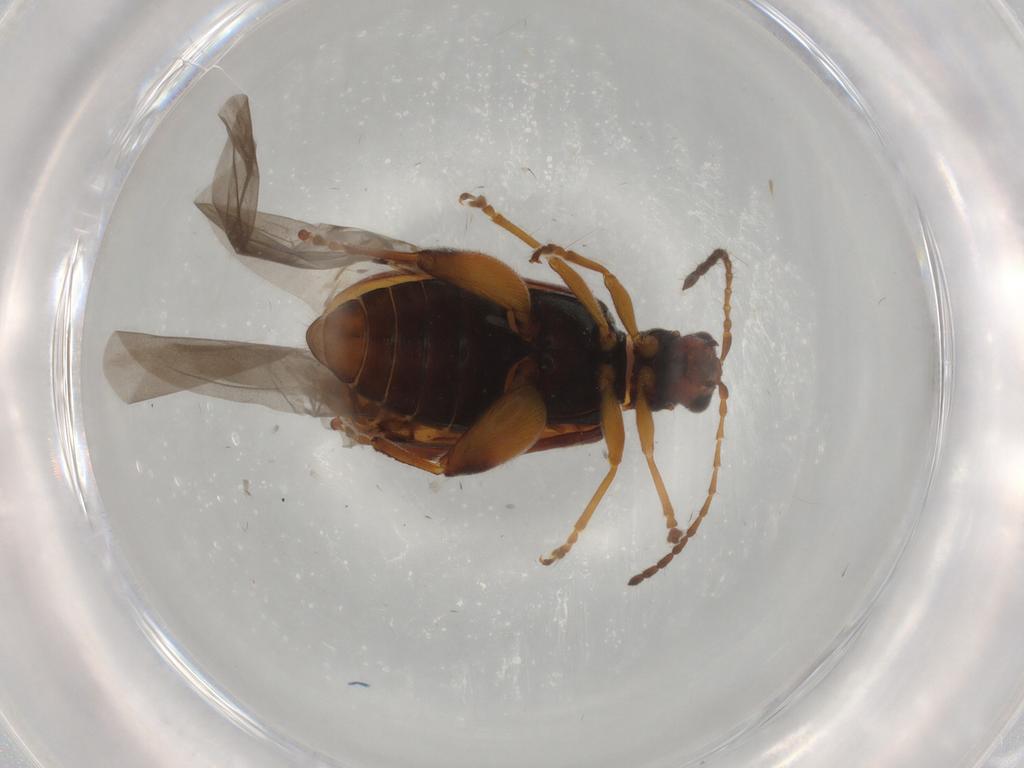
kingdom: Animalia
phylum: Arthropoda
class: Insecta
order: Coleoptera
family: Chrysomelidae
